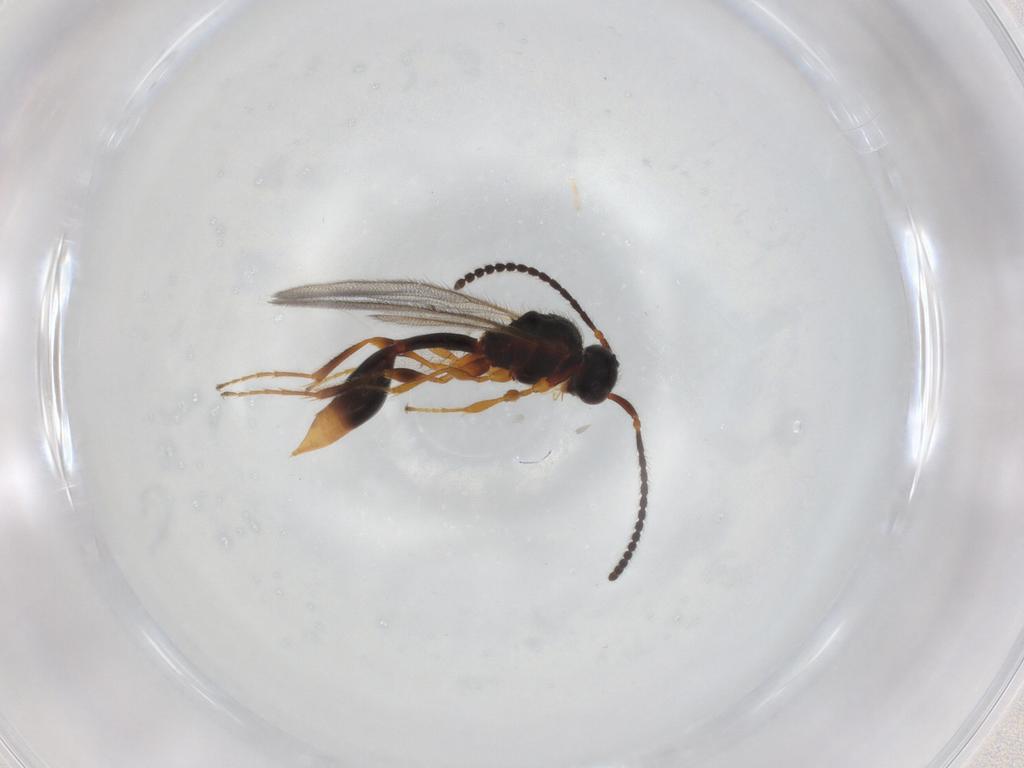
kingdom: Animalia
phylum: Arthropoda
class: Insecta
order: Hymenoptera
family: Diapriidae
